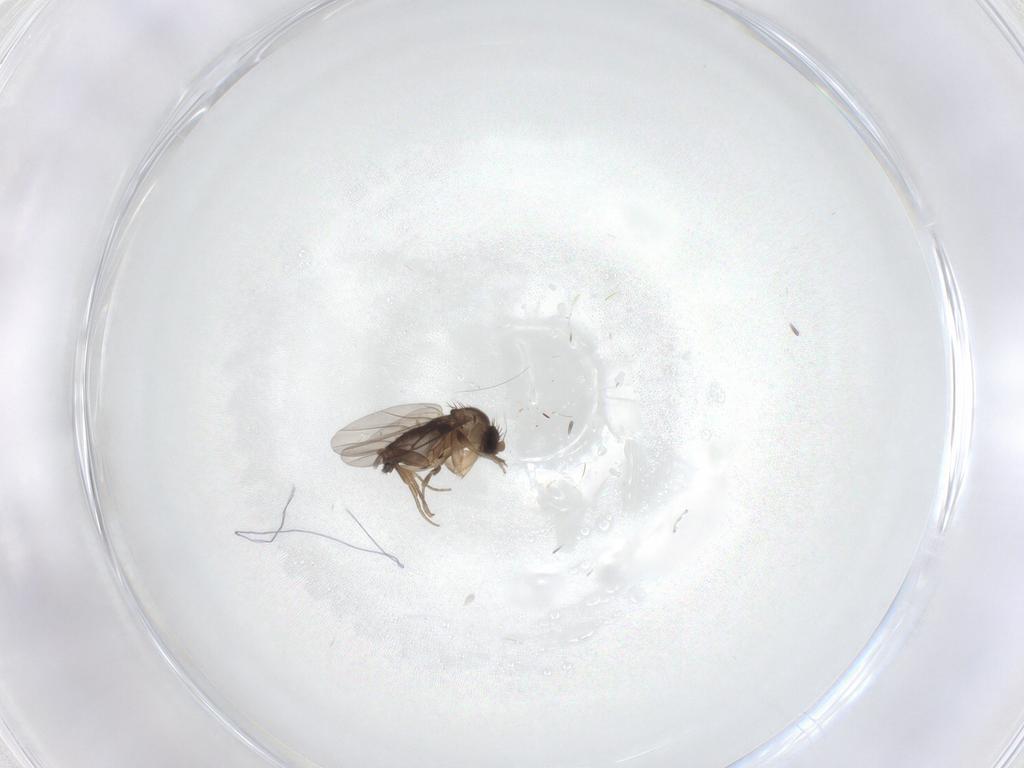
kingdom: Animalia
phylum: Arthropoda
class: Insecta
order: Diptera
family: Phoridae
